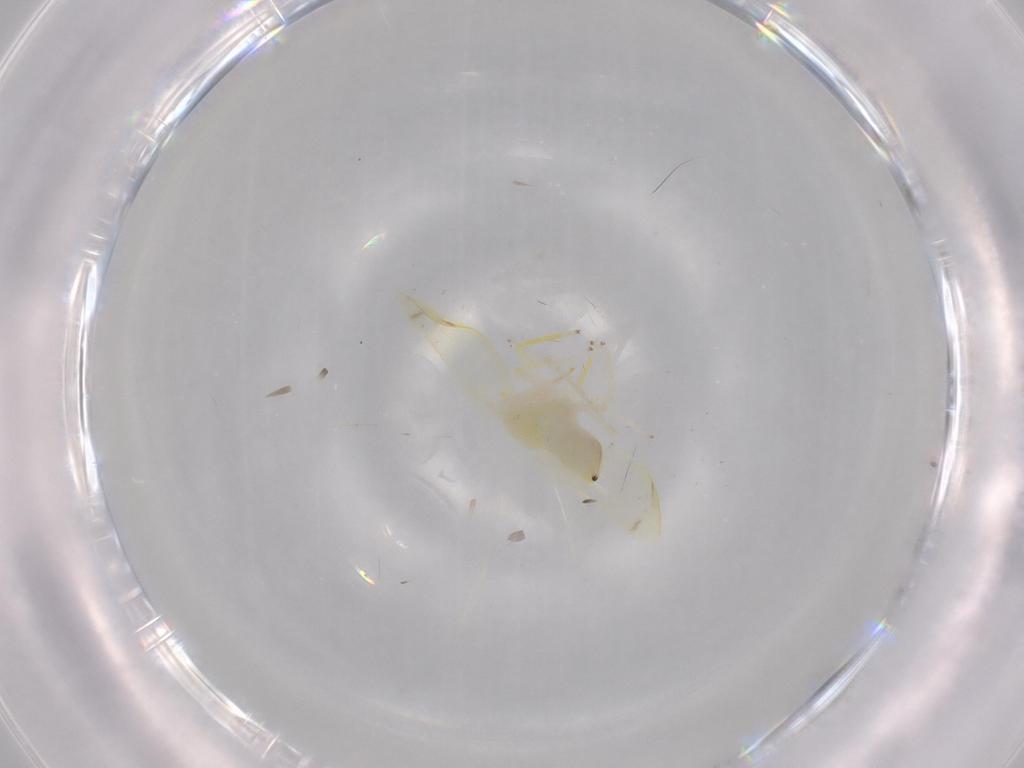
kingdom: Animalia
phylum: Arthropoda
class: Insecta
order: Hemiptera
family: Cicadellidae
